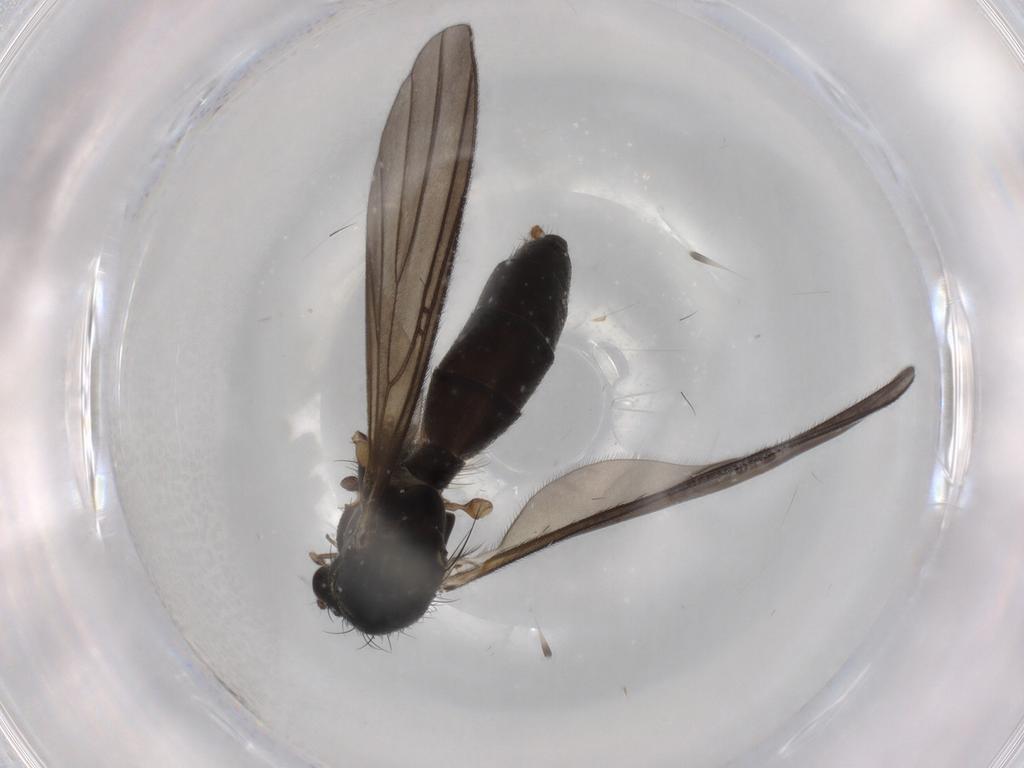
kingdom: Animalia
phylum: Arthropoda
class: Insecta
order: Diptera
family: Mycetophilidae
